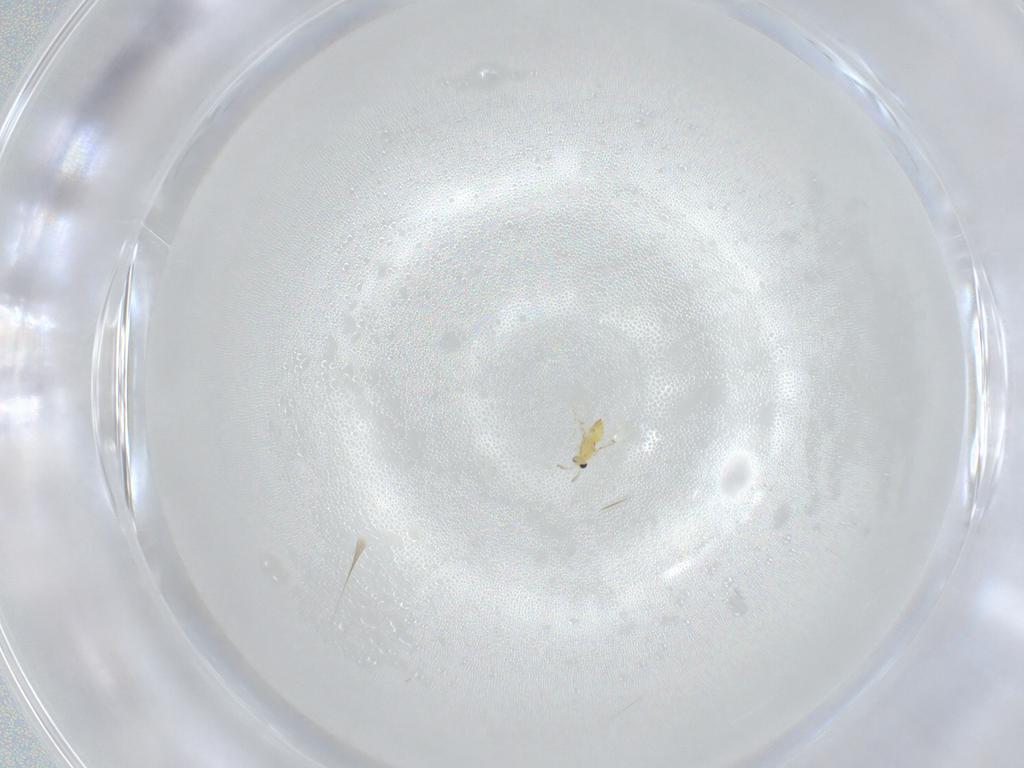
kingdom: Animalia
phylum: Arthropoda
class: Insecta
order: Hymenoptera
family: Trichogrammatidae
